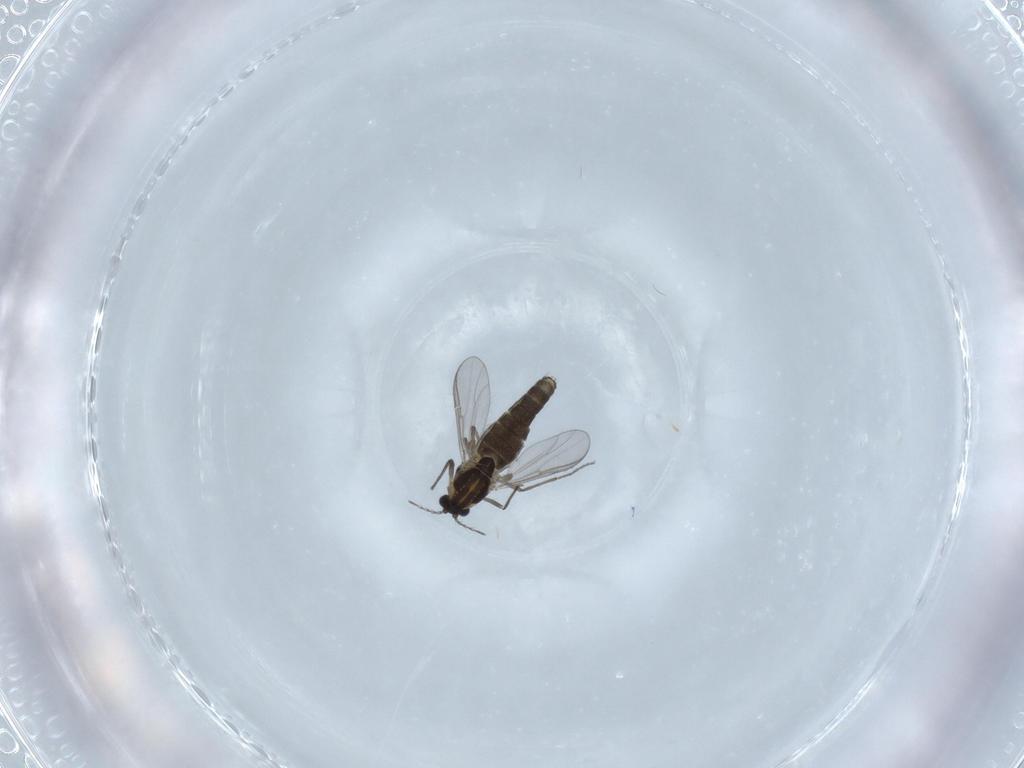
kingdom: Animalia
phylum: Arthropoda
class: Insecta
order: Diptera
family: Chironomidae
